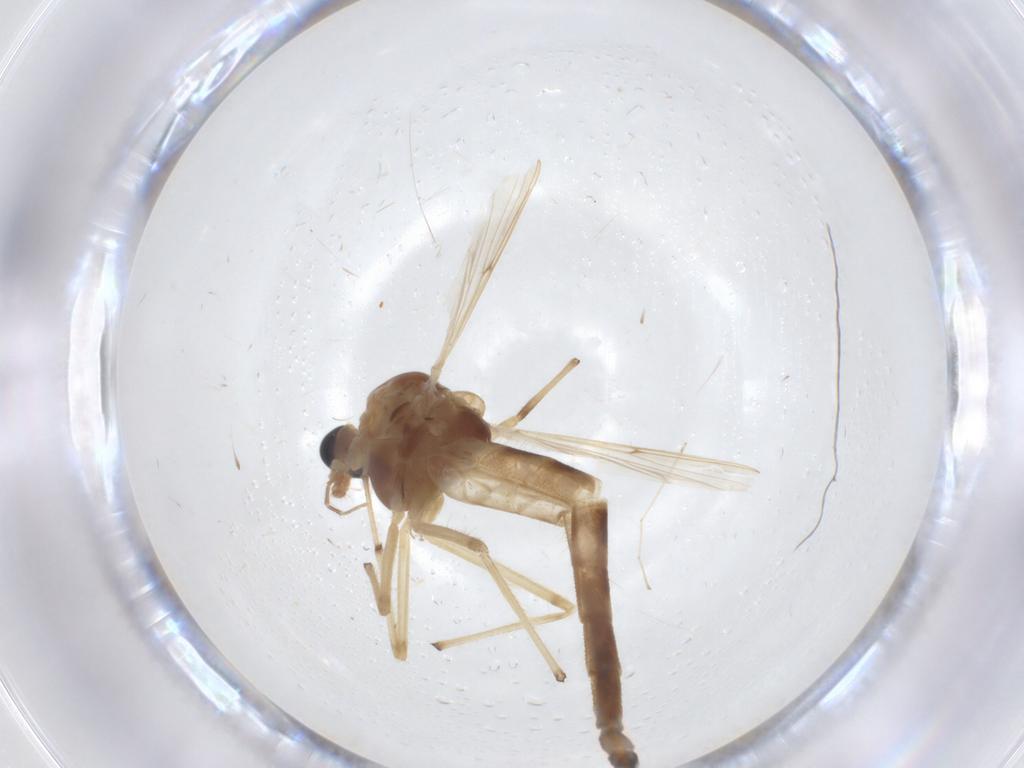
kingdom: Animalia
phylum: Arthropoda
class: Insecta
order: Diptera
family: Chironomidae
